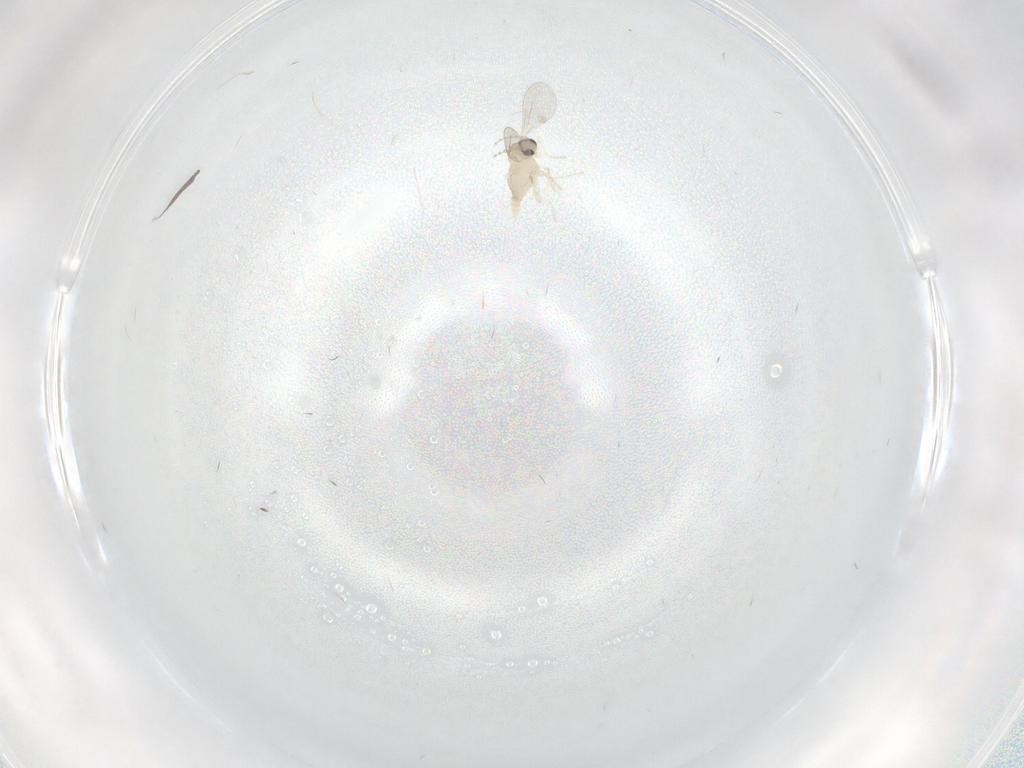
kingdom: Animalia
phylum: Arthropoda
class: Insecta
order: Diptera
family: Cecidomyiidae
